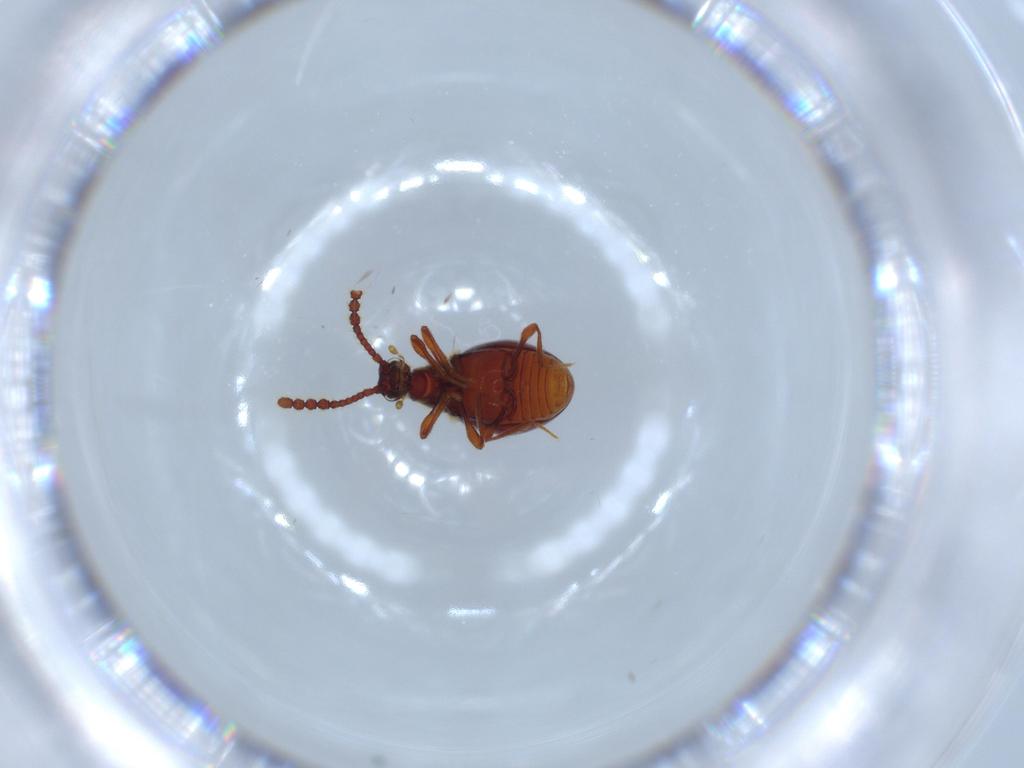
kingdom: Animalia
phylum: Arthropoda
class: Insecta
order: Coleoptera
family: Staphylinidae
